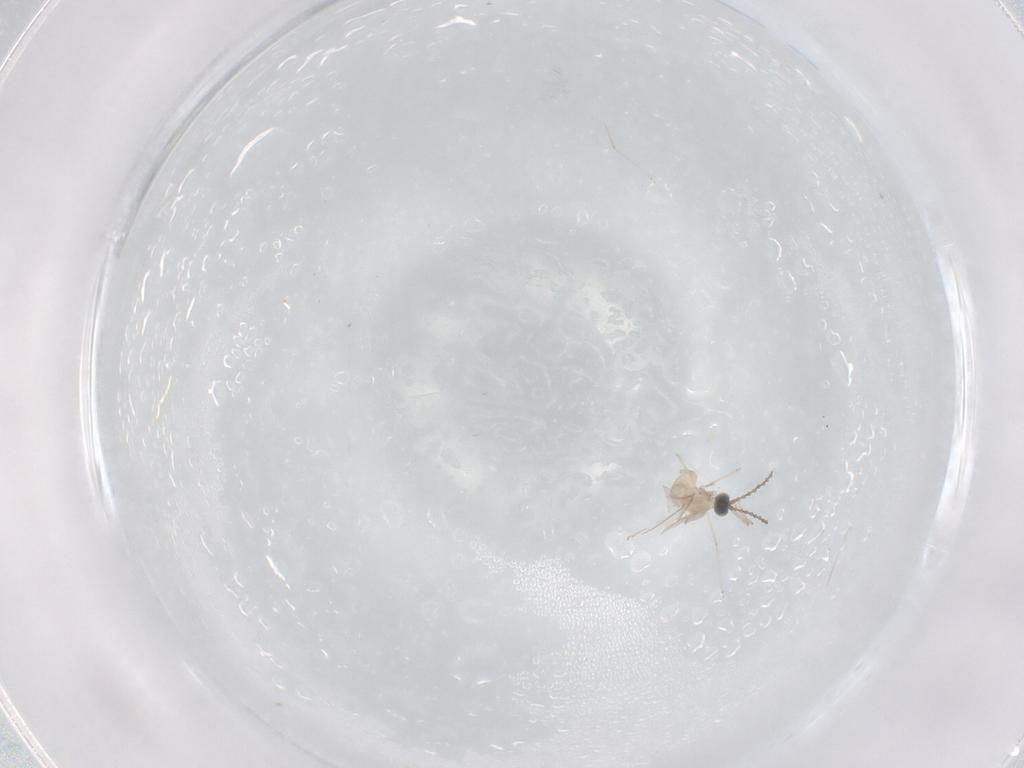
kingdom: Animalia
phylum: Arthropoda
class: Insecta
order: Diptera
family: Cecidomyiidae
